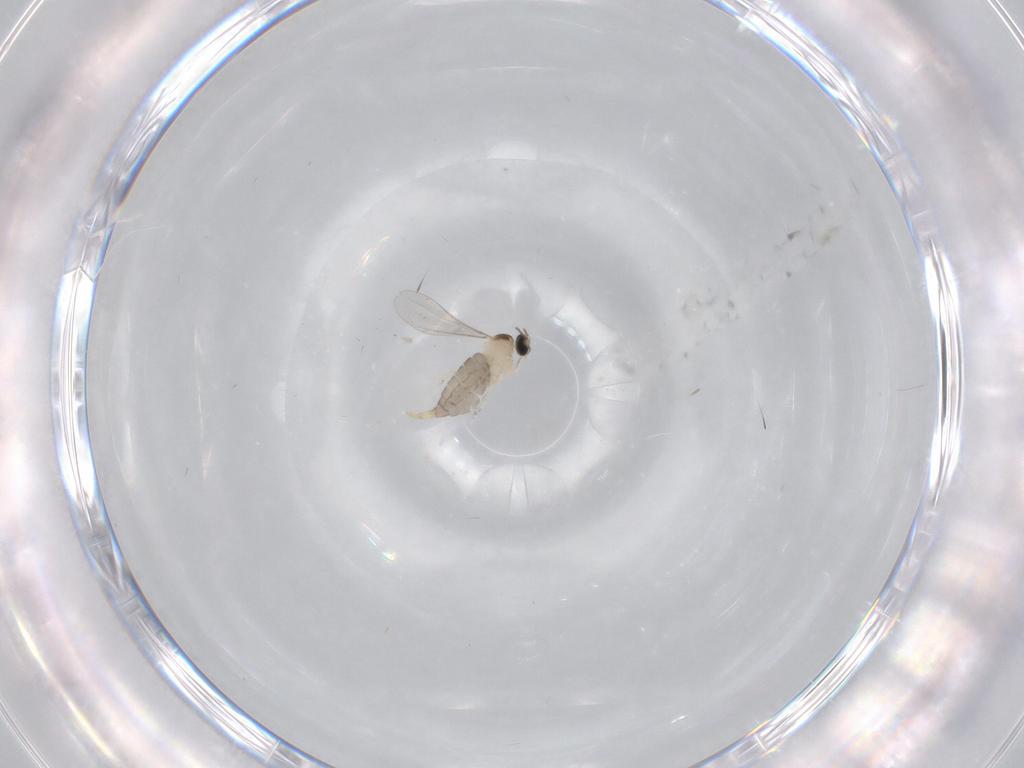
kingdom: Animalia
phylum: Arthropoda
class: Insecta
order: Diptera
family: Cecidomyiidae
